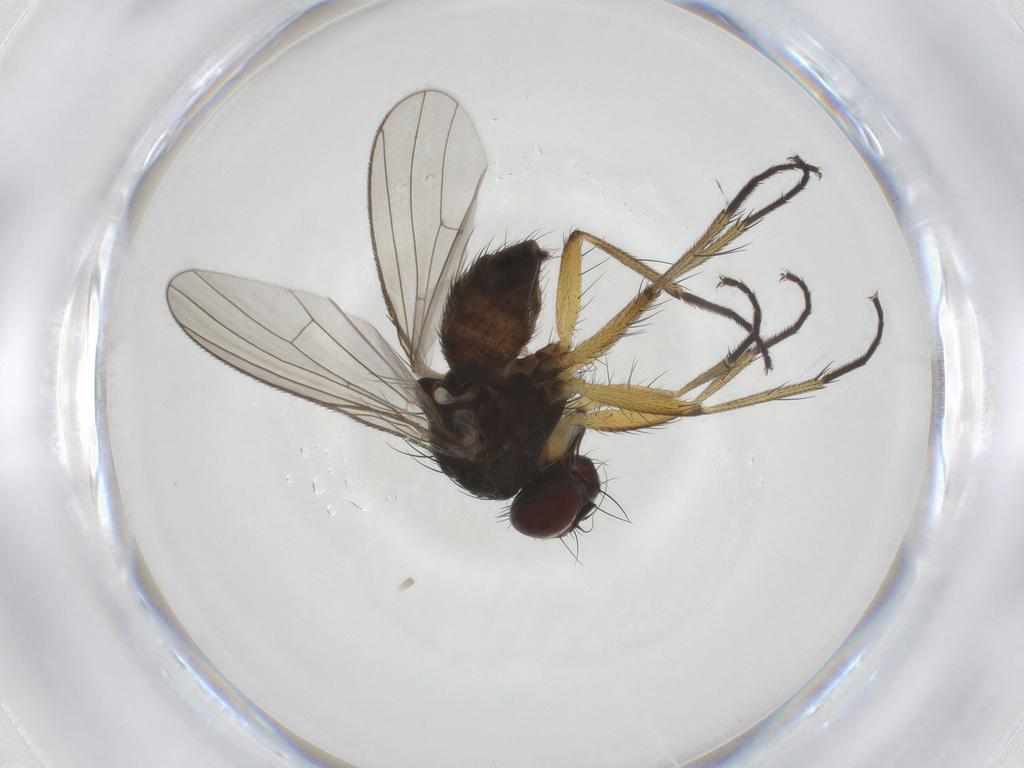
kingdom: Animalia
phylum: Arthropoda
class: Insecta
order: Diptera
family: Muscidae
